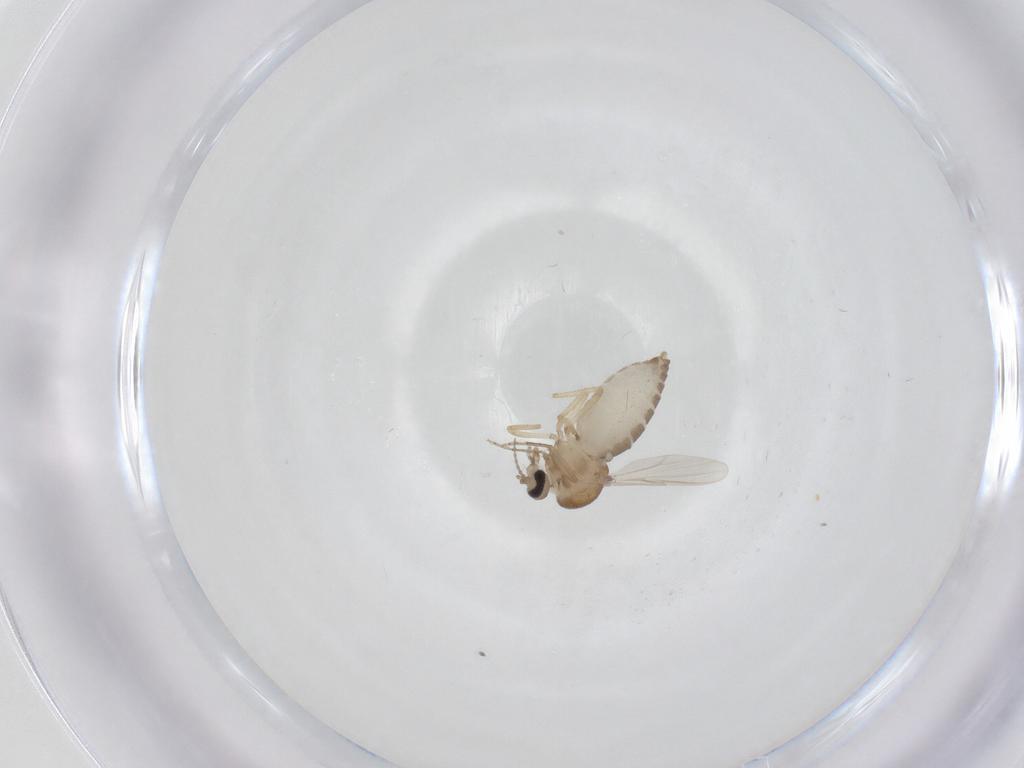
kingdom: Animalia
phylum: Arthropoda
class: Insecta
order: Diptera
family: Ceratopogonidae
